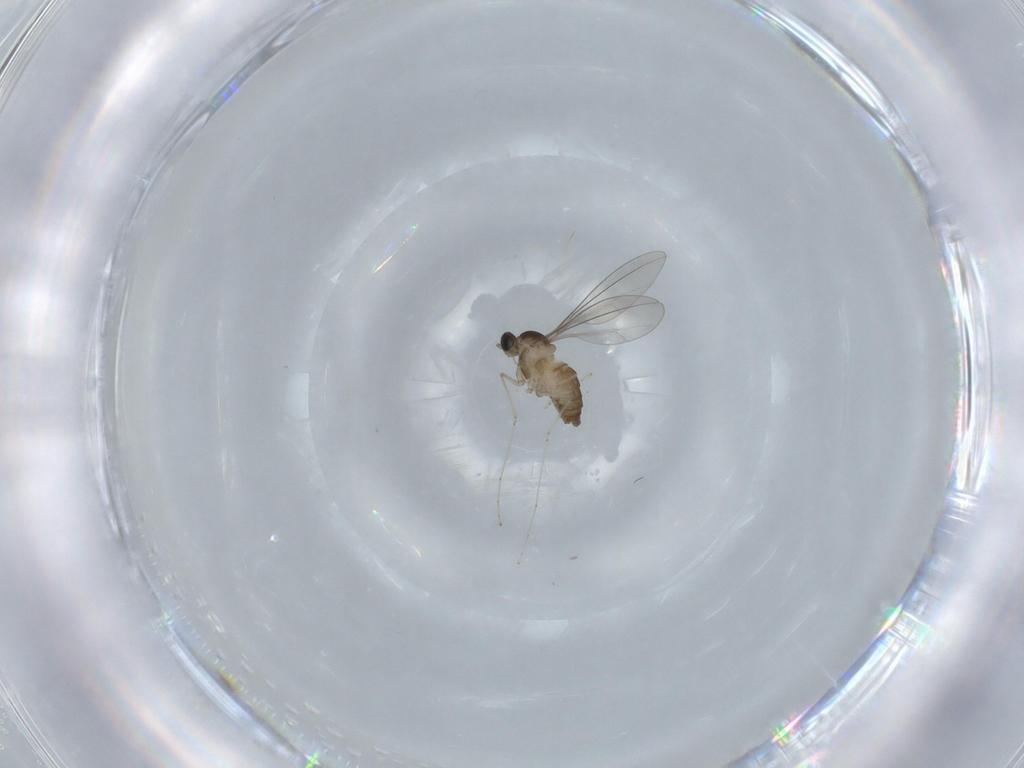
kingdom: Animalia
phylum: Arthropoda
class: Insecta
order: Diptera
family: Cecidomyiidae
